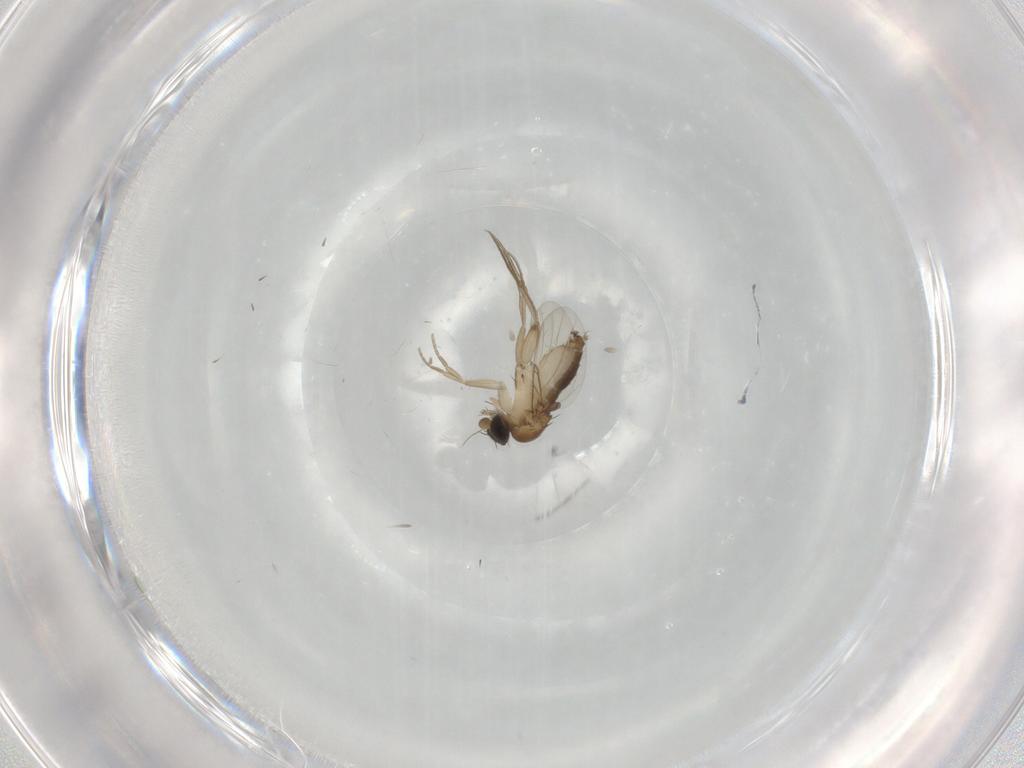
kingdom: Animalia
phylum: Arthropoda
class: Insecta
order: Diptera
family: Phoridae
